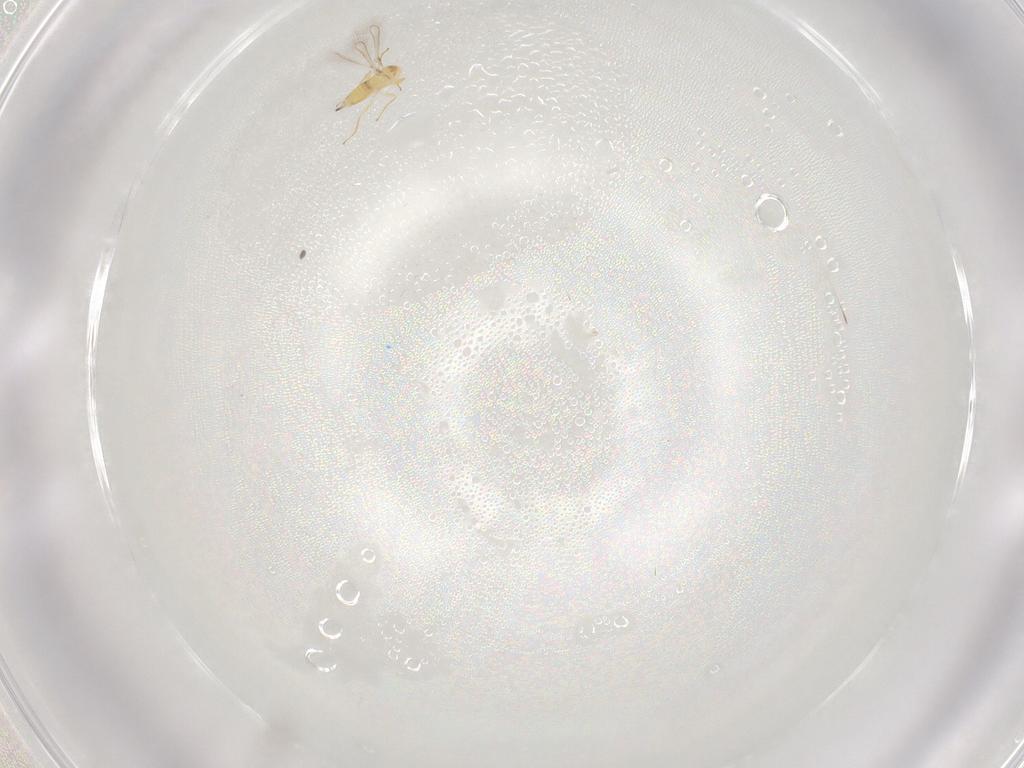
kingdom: Animalia
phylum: Arthropoda
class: Insecta
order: Hymenoptera
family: Mymaridae
